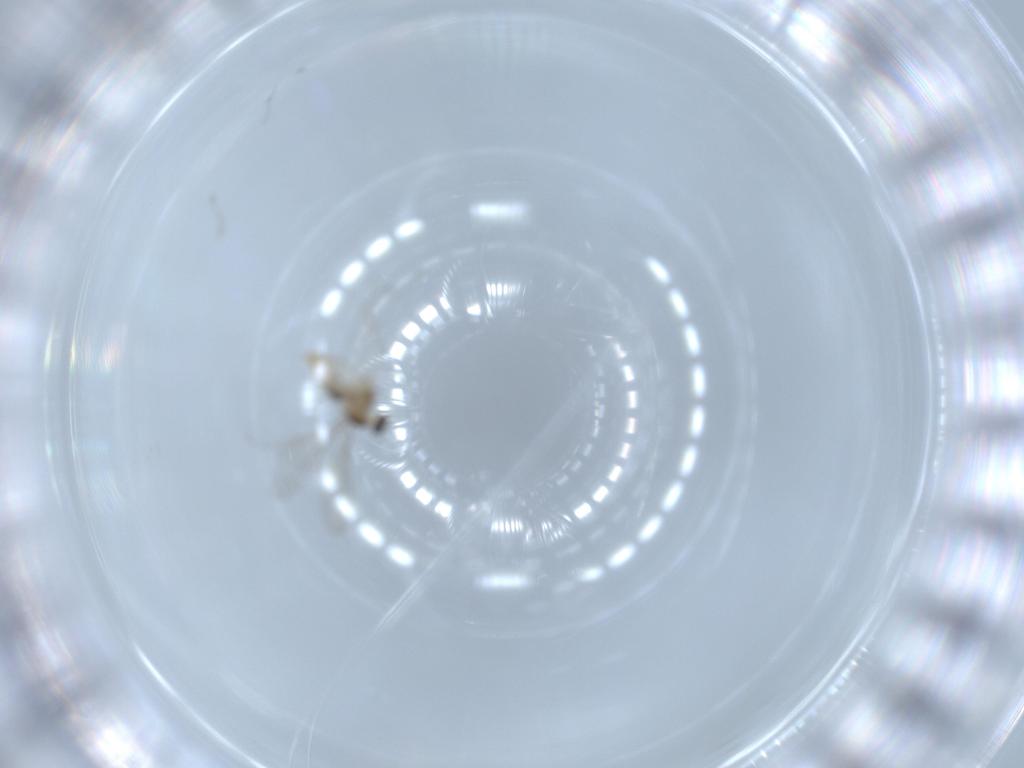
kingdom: Animalia
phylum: Arthropoda
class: Insecta
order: Diptera
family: Cecidomyiidae
